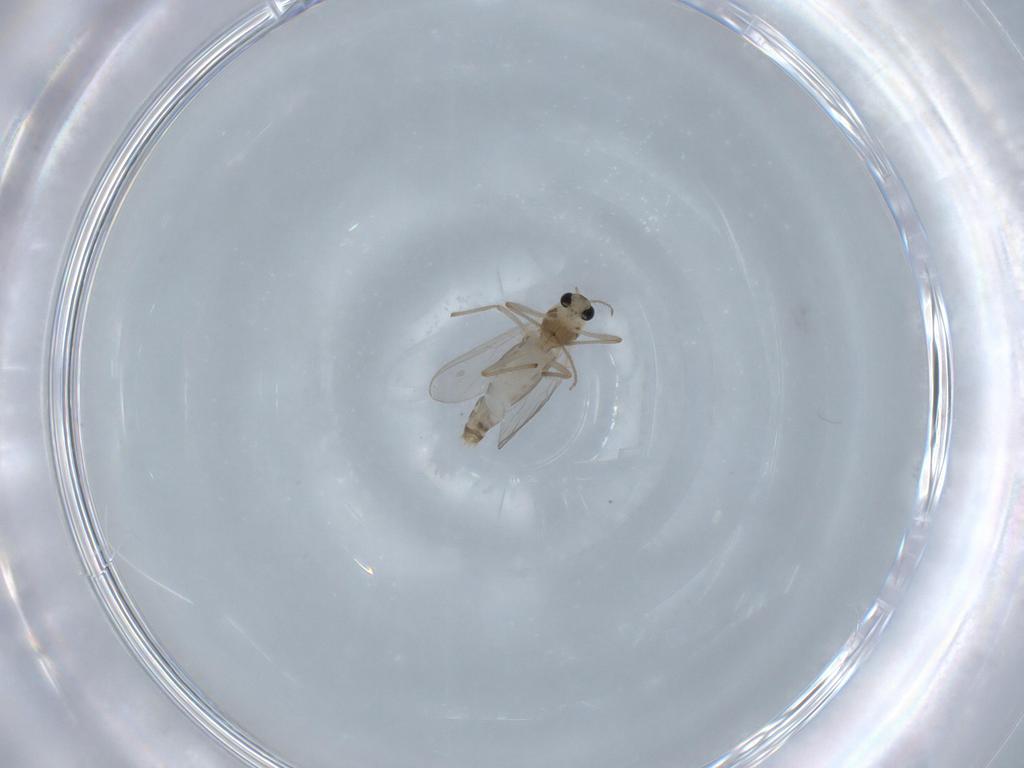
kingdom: Animalia
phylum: Arthropoda
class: Insecta
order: Diptera
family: Chironomidae
